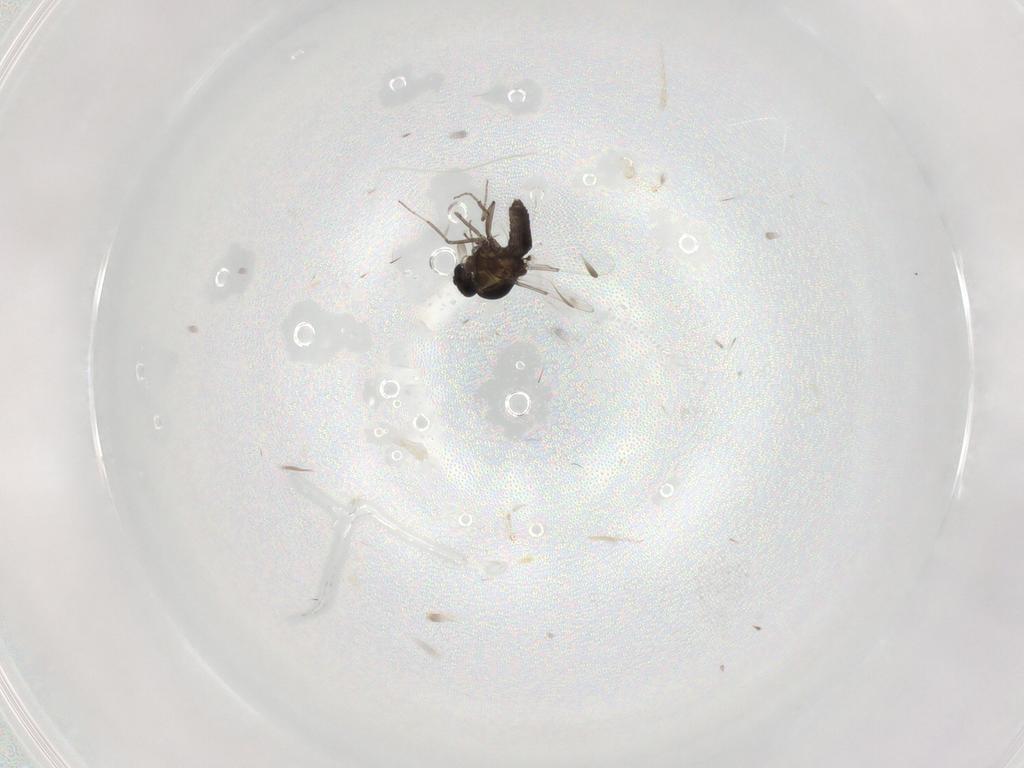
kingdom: Animalia
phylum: Arthropoda
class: Insecta
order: Diptera
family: Ceratopogonidae
